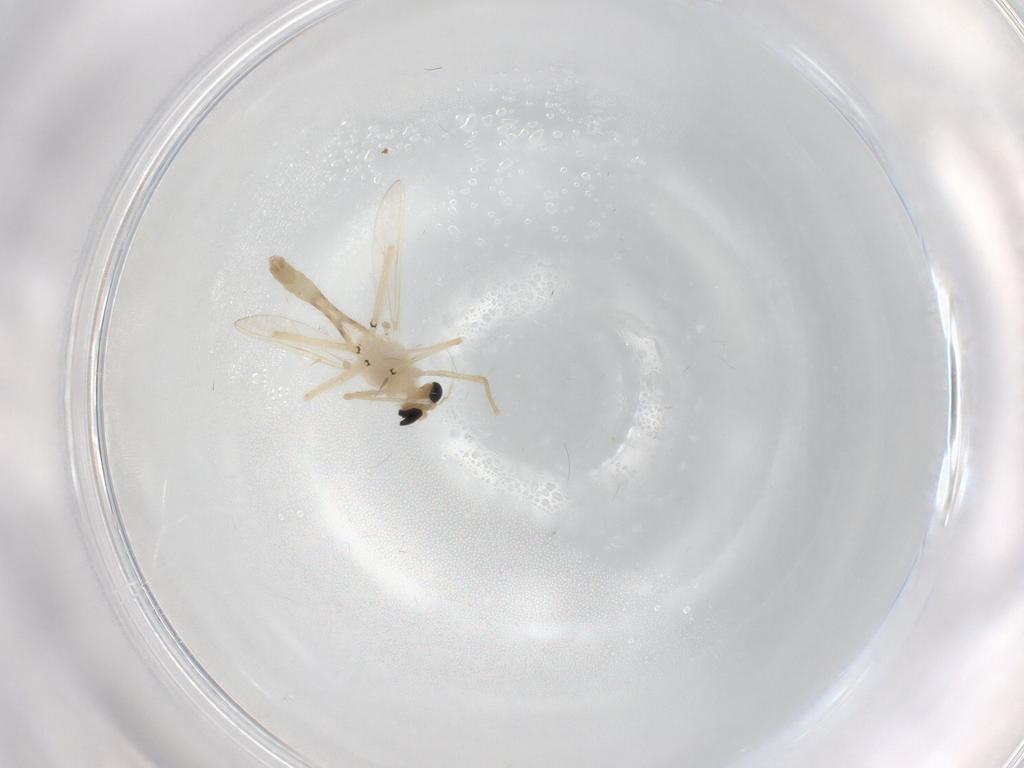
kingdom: Animalia
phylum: Arthropoda
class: Insecta
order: Diptera
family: Chironomidae
